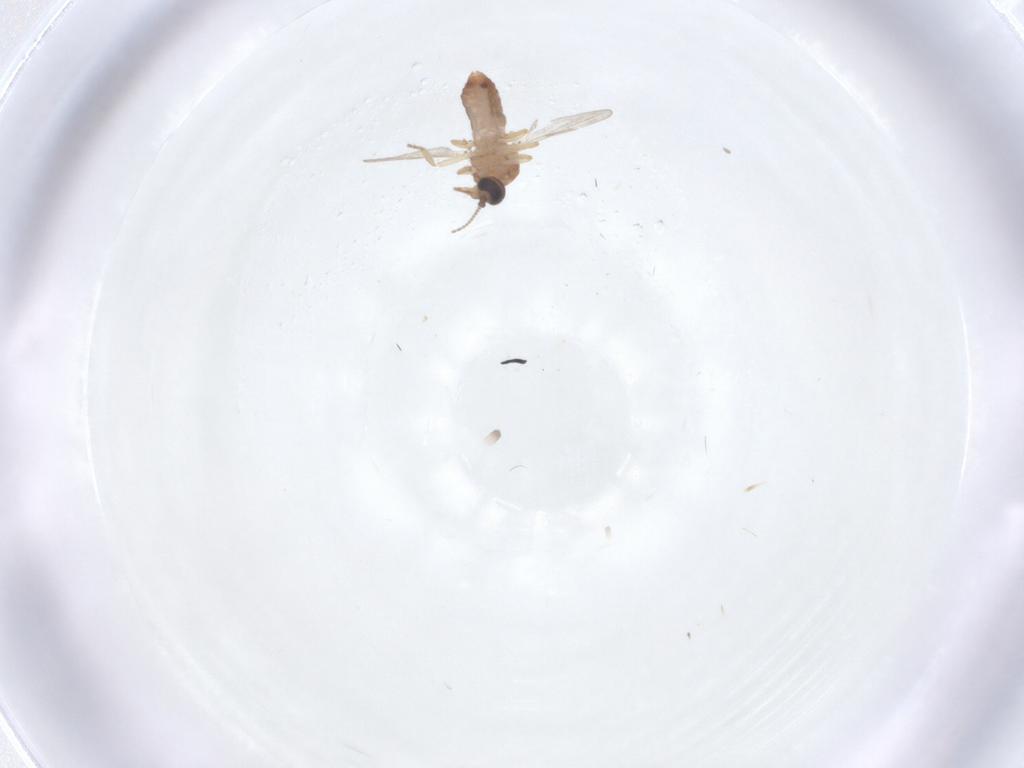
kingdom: Animalia
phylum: Arthropoda
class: Insecta
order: Diptera
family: Ceratopogonidae
